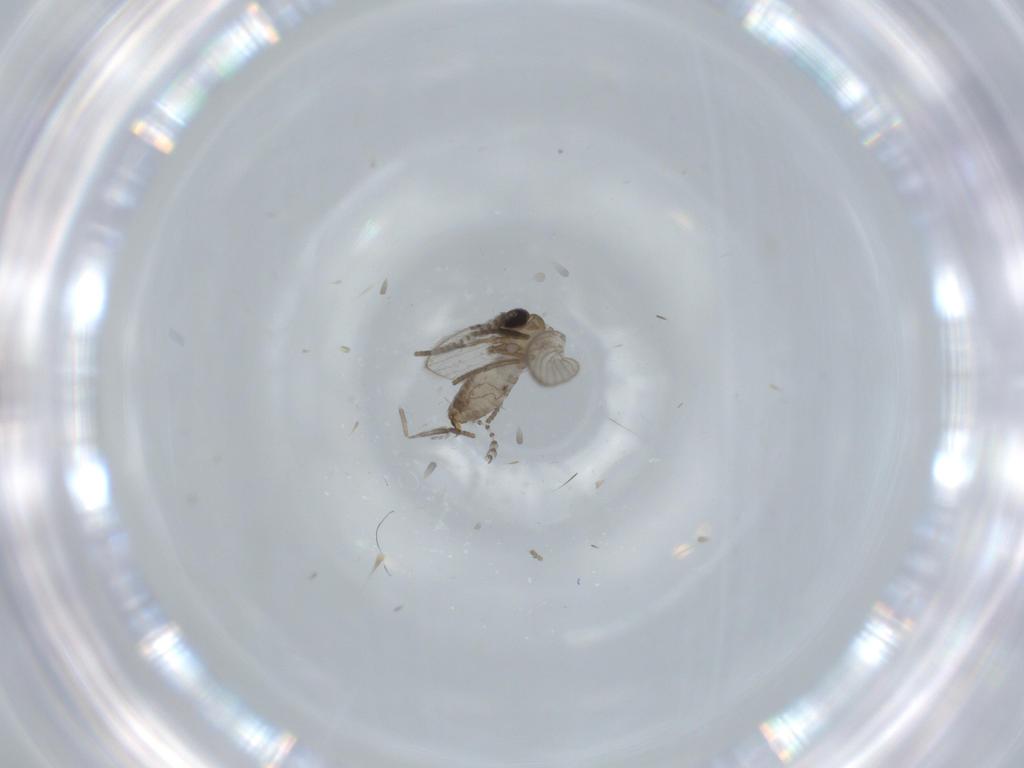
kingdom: Animalia
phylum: Arthropoda
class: Insecta
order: Diptera
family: Psychodidae
